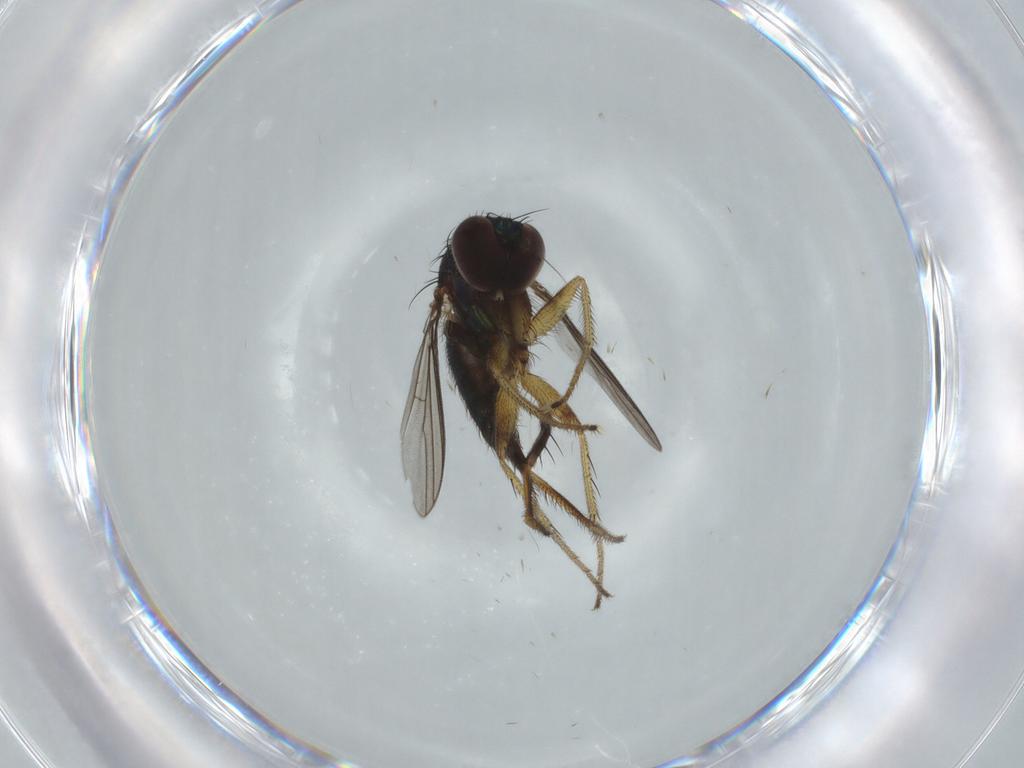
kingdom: Animalia
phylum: Arthropoda
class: Insecta
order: Diptera
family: Dolichopodidae
